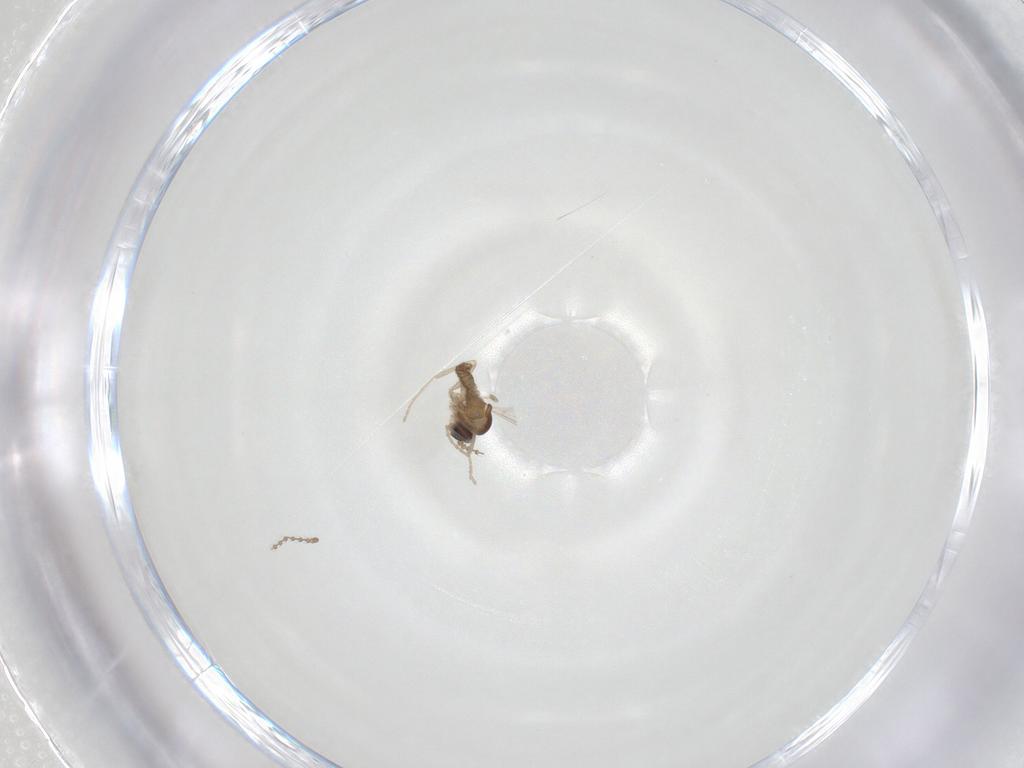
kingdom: Animalia
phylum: Arthropoda
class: Insecta
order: Diptera
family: Cecidomyiidae
